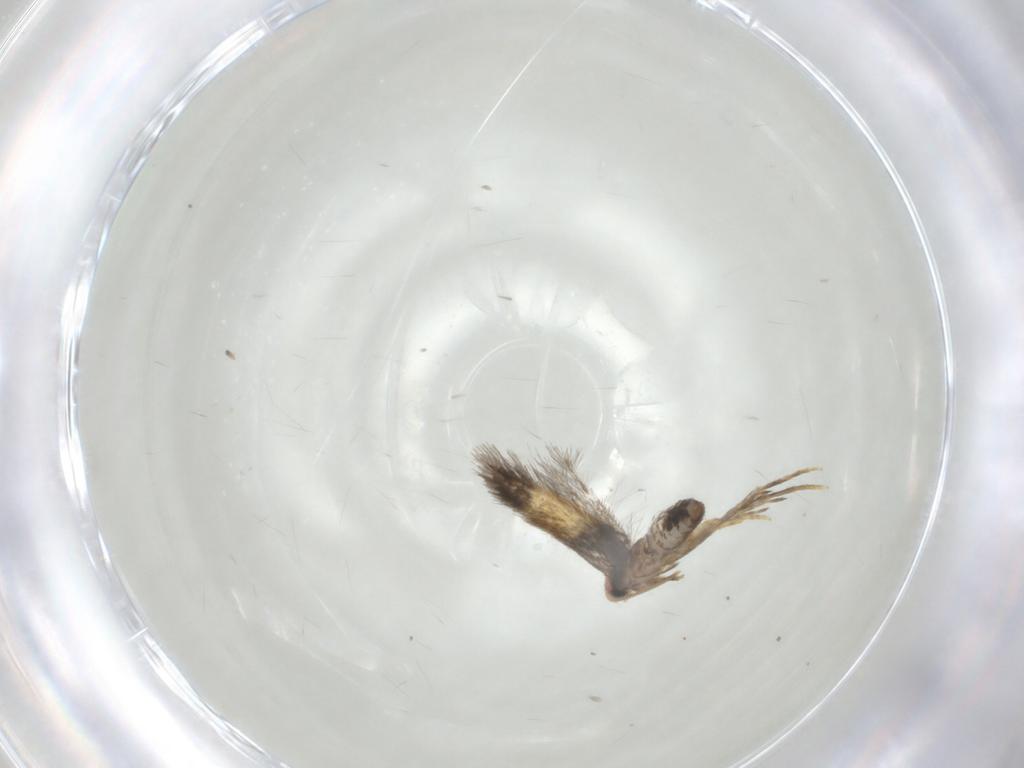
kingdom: Animalia
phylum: Arthropoda
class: Insecta
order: Lepidoptera
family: Nepticulidae
